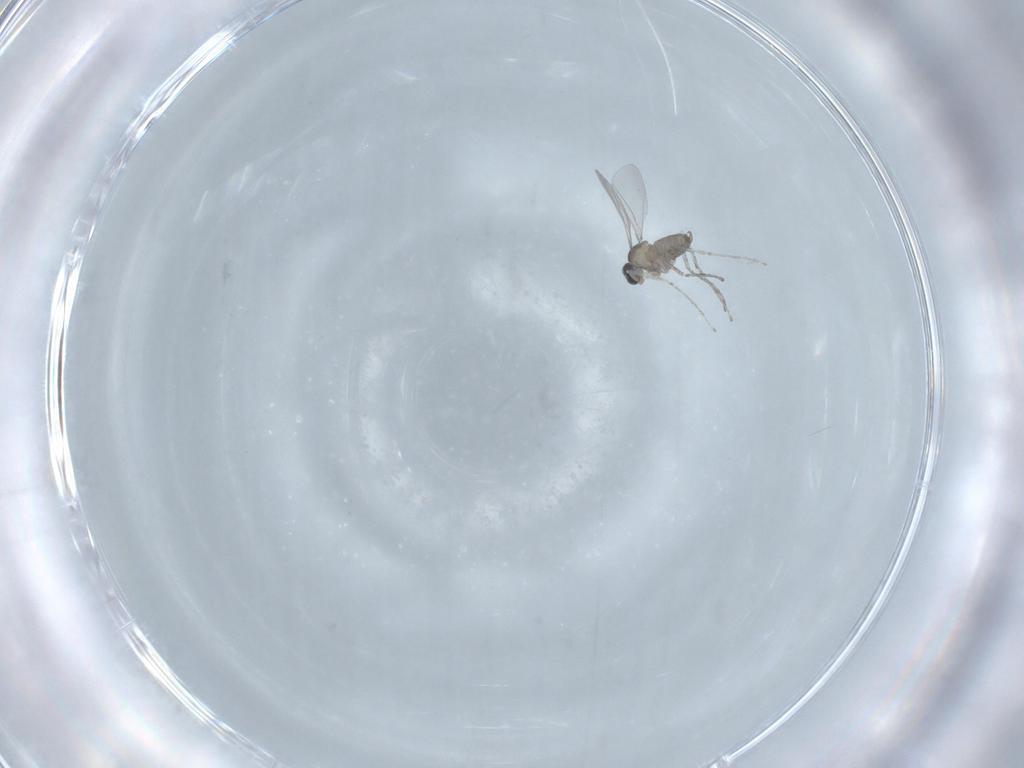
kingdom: Animalia
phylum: Arthropoda
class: Insecta
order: Diptera
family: Cecidomyiidae
